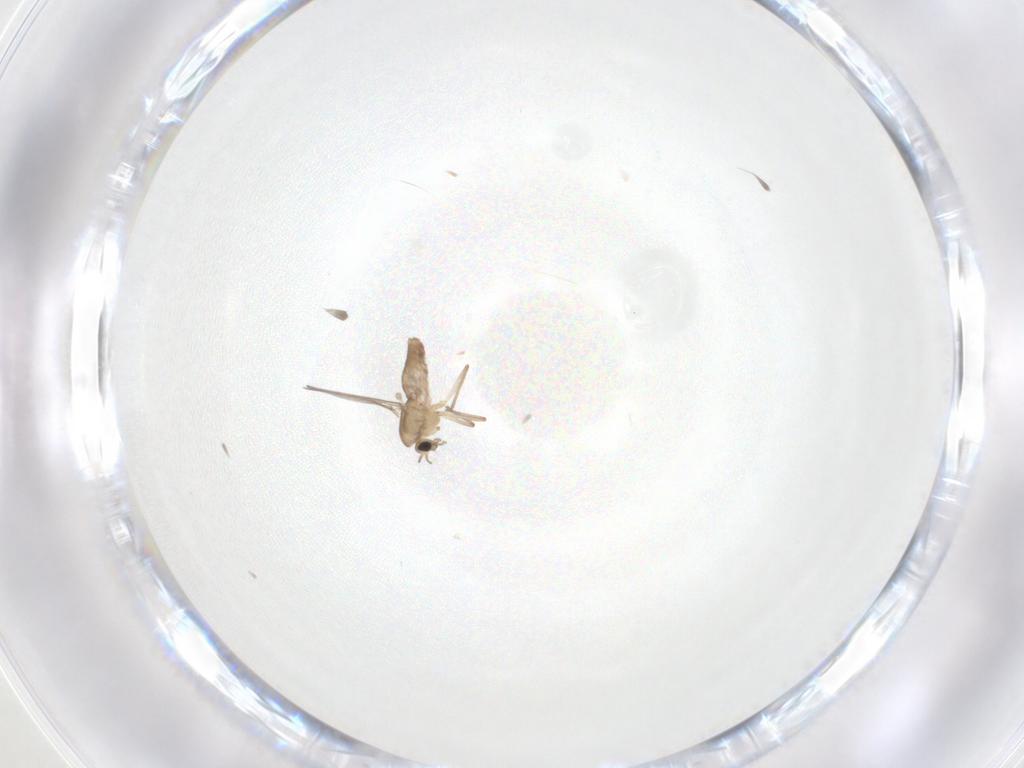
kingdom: Animalia
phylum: Arthropoda
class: Insecta
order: Diptera
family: Chironomidae
